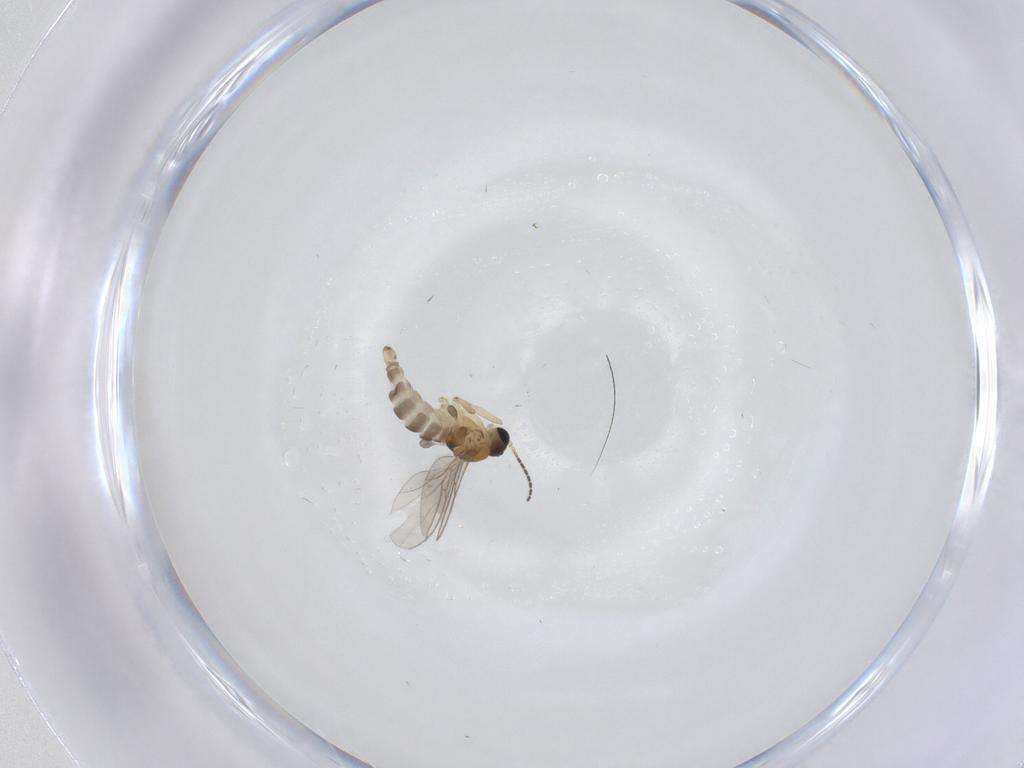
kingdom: Animalia
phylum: Arthropoda
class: Insecta
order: Diptera
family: Sciaridae
